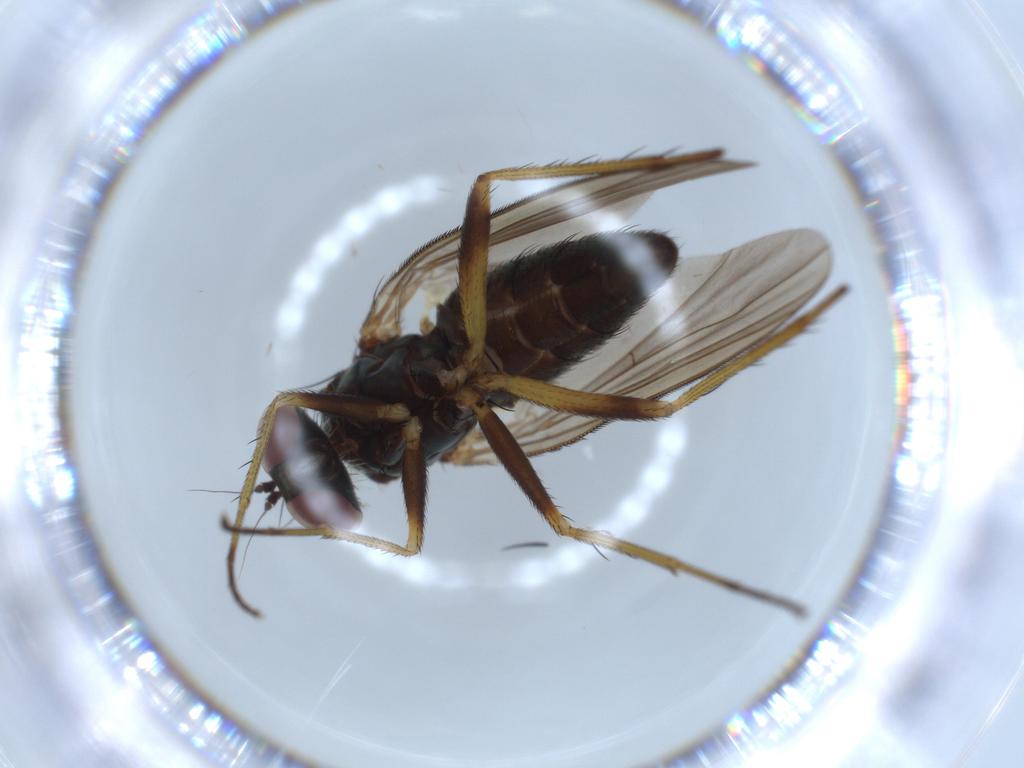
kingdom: Animalia
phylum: Arthropoda
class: Insecta
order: Diptera
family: Dolichopodidae
